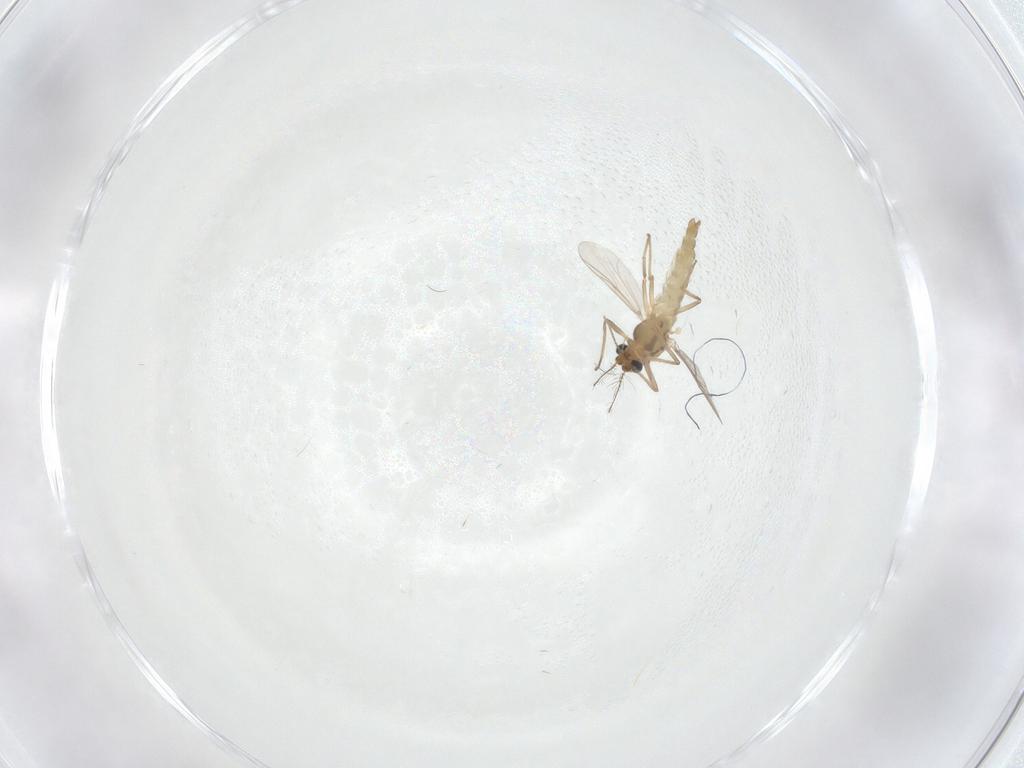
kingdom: Animalia
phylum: Arthropoda
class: Insecta
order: Diptera
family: Chironomidae
